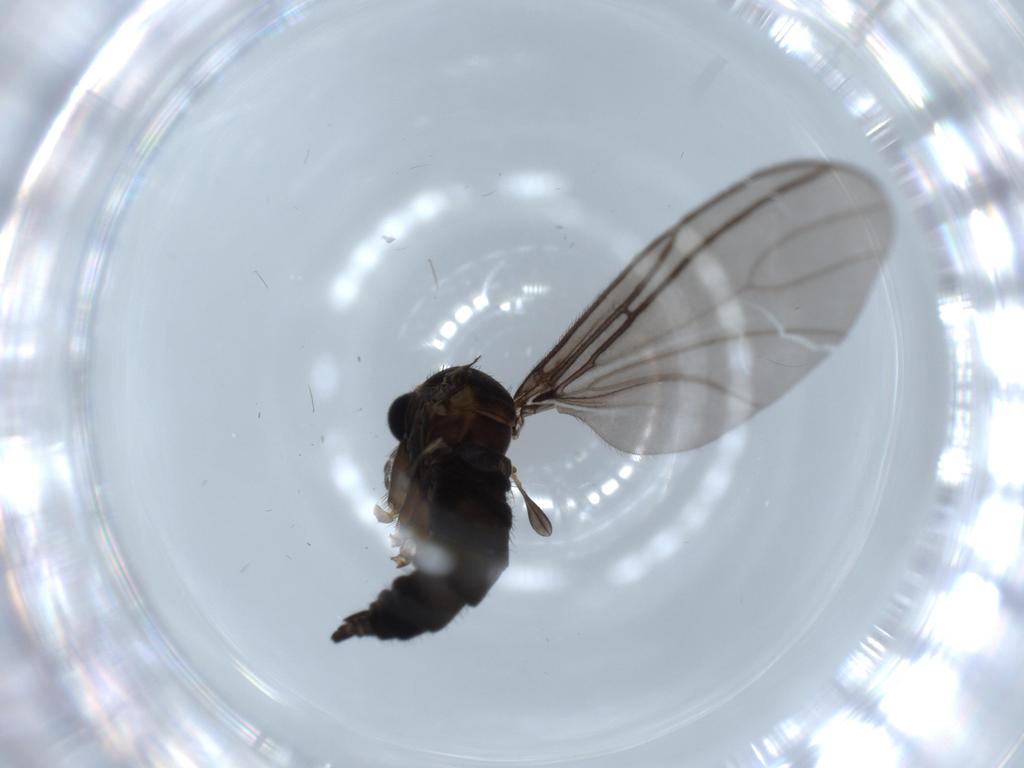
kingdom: Animalia
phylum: Arthropoda
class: Insecta
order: Diptera
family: Sciaridae
